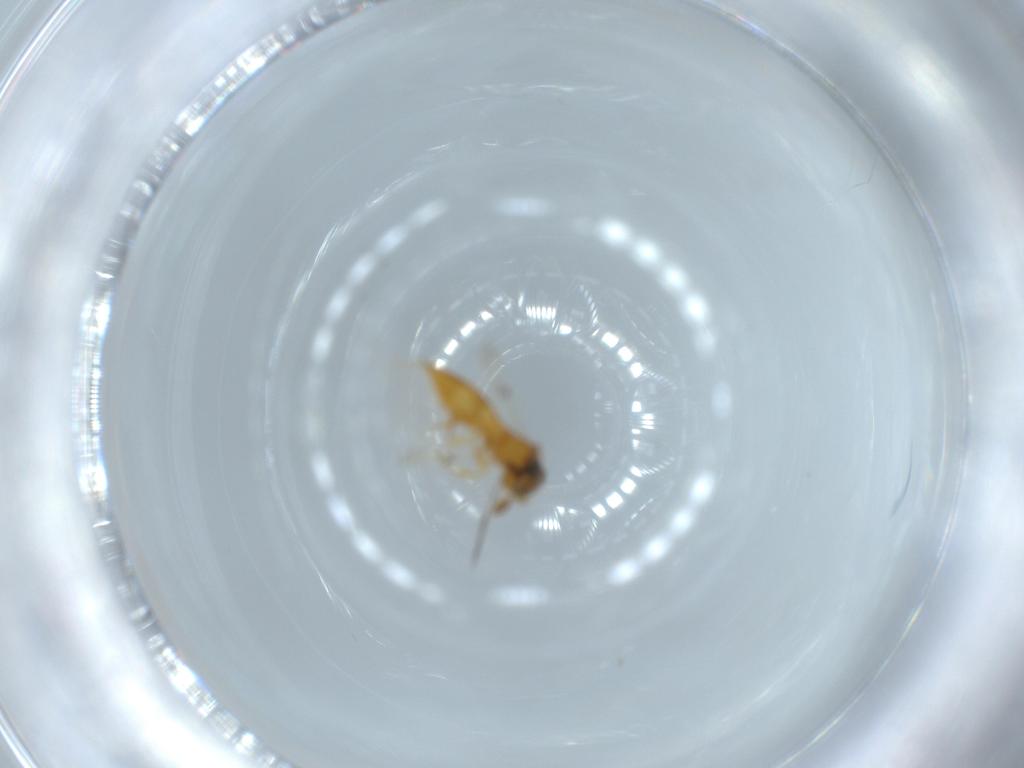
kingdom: Animalia
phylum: Arthropoda
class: Insecta
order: Hymenoptera
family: Scelionidae
